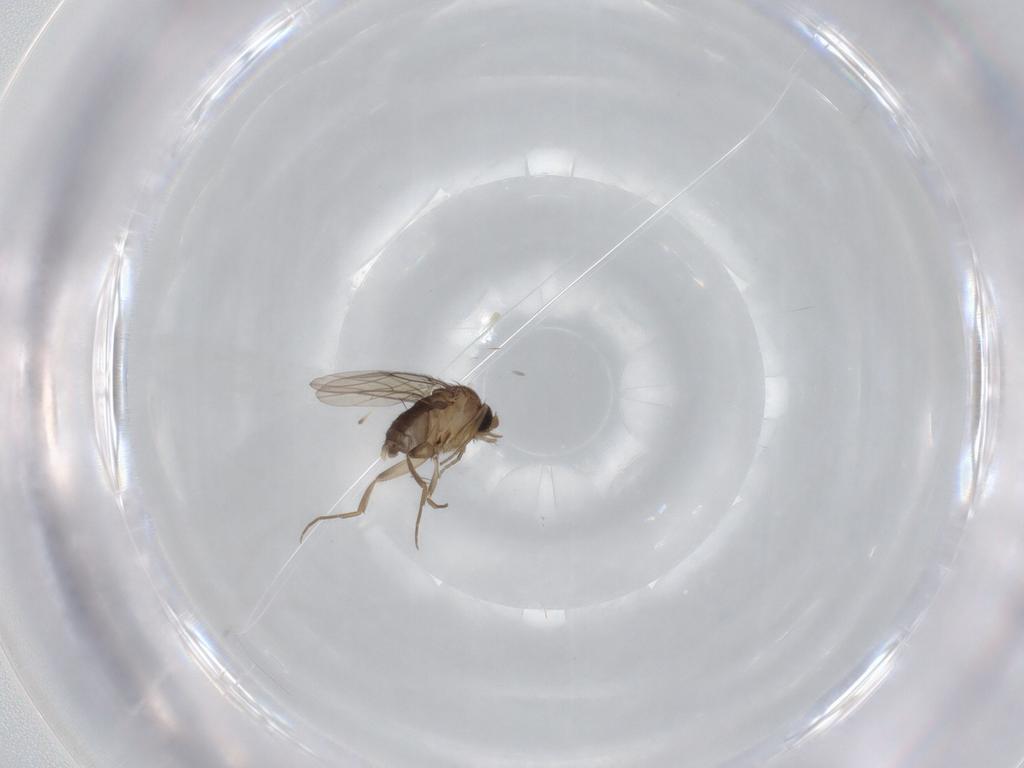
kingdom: Animalia
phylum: Arthropoda
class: Insecta
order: Diptera
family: Phoridae
